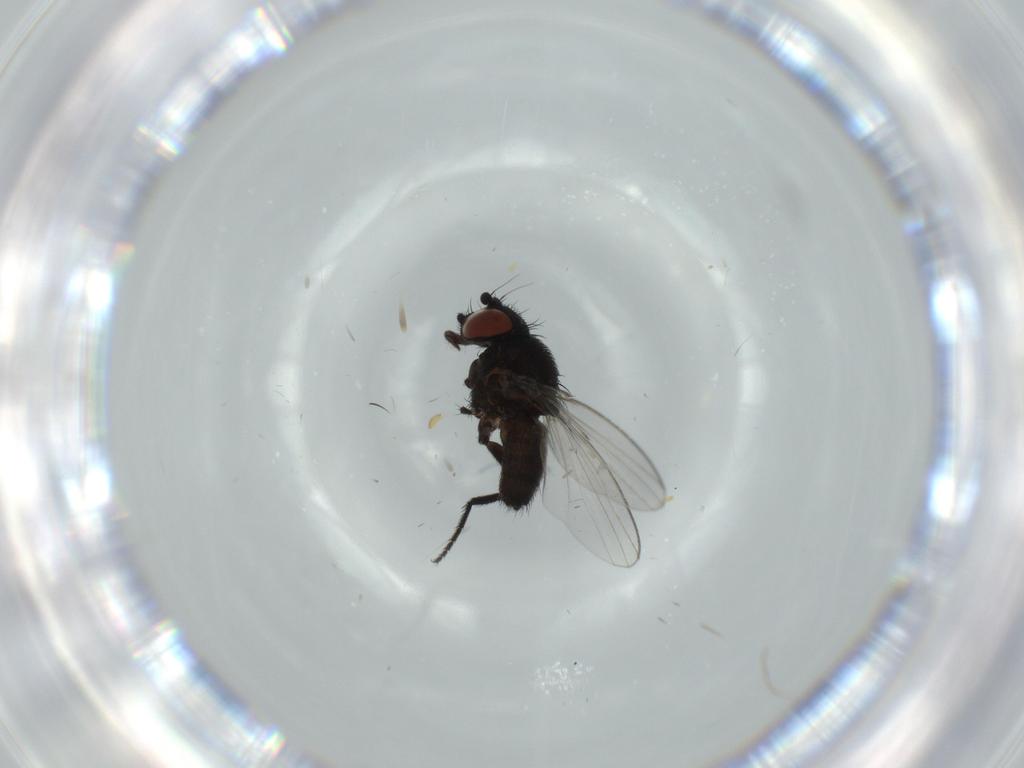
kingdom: Animalia
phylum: Arthropoda
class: Insecta
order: Diptera
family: Milichiidae
